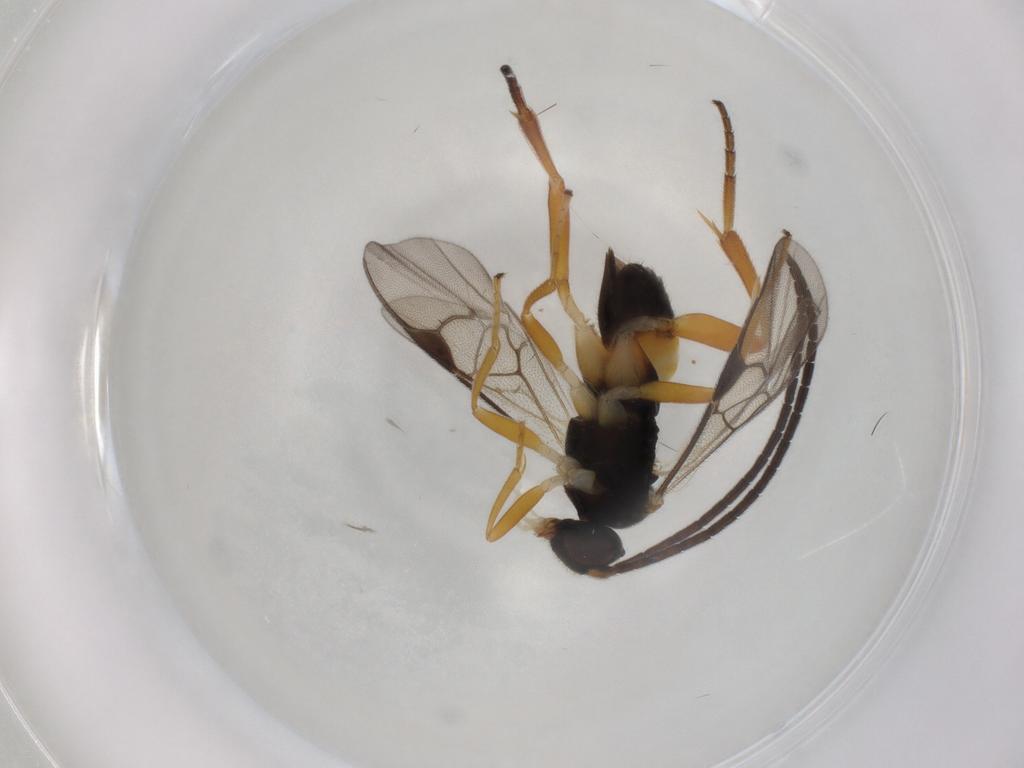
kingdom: Animalia
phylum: Arthropoda
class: Insecta
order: Hymenoptera
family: Braconidae
